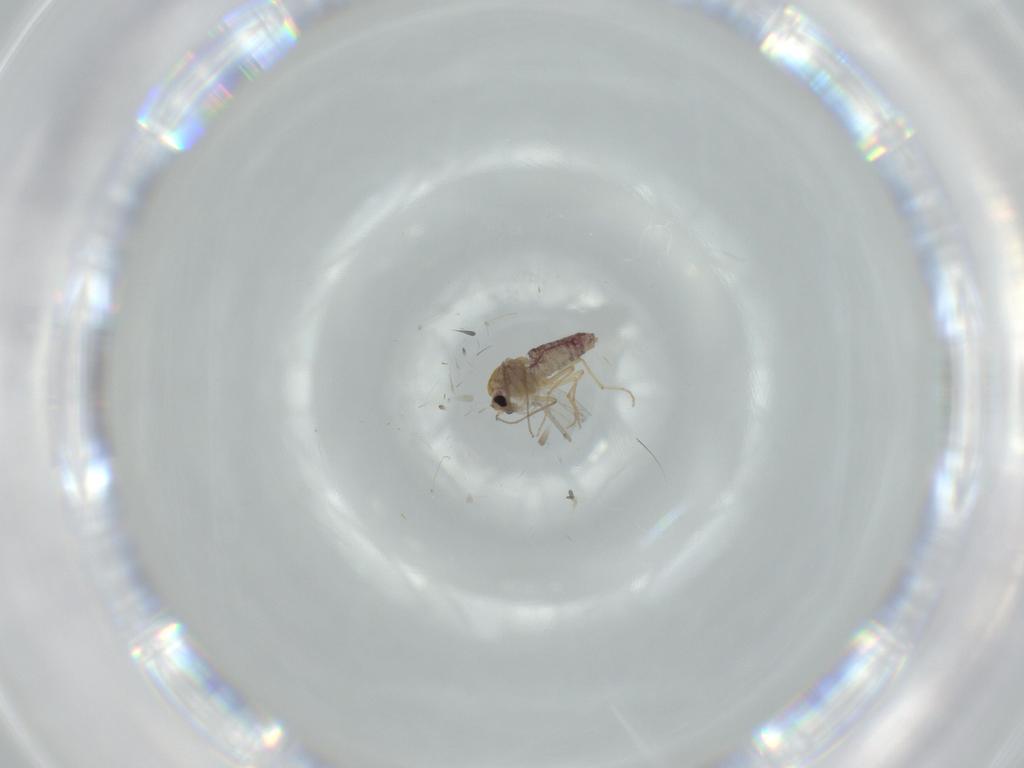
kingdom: Animalia
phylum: Arthropoda
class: Insecta
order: Diptera
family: Chironomidae
